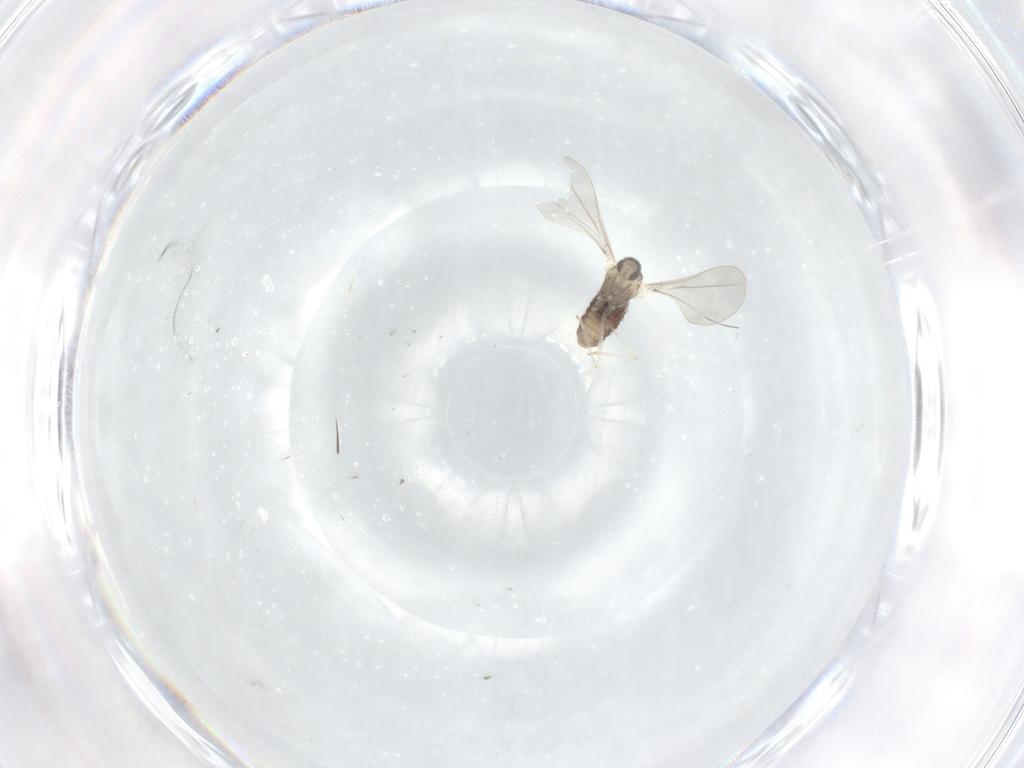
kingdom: Animalia
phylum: Arthropoda
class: Insecta
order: Diptera
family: Cecidomyiidae
